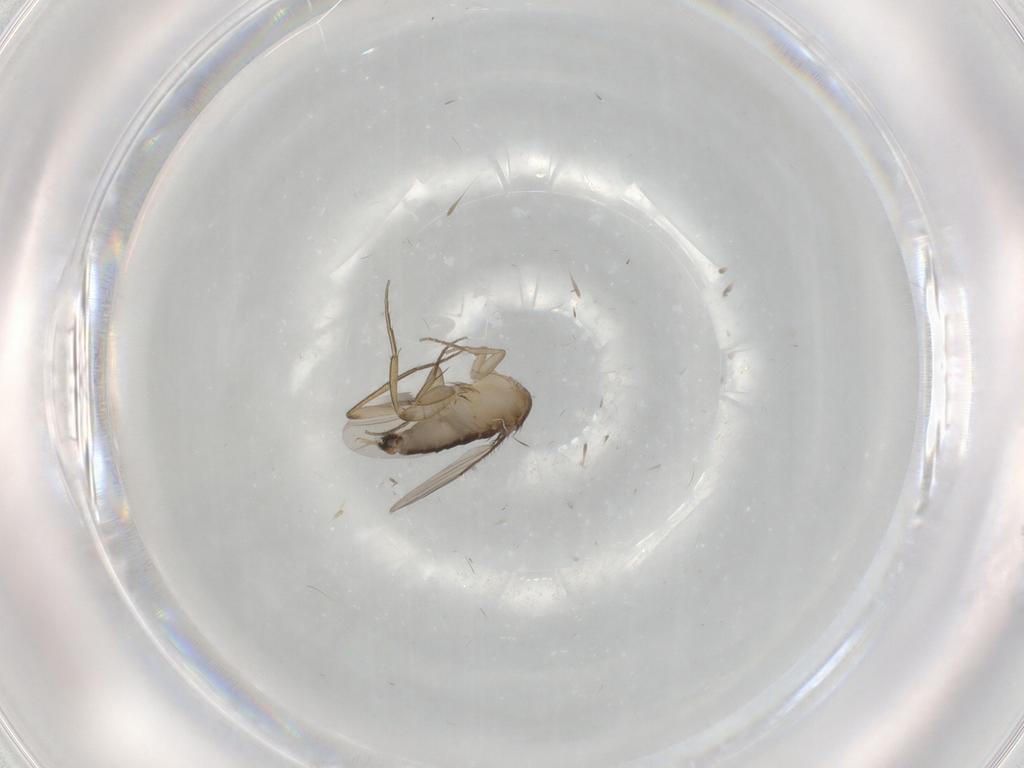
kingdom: Animalia
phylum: Arthropoda
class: Insecta
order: Diptera
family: Phoridae
